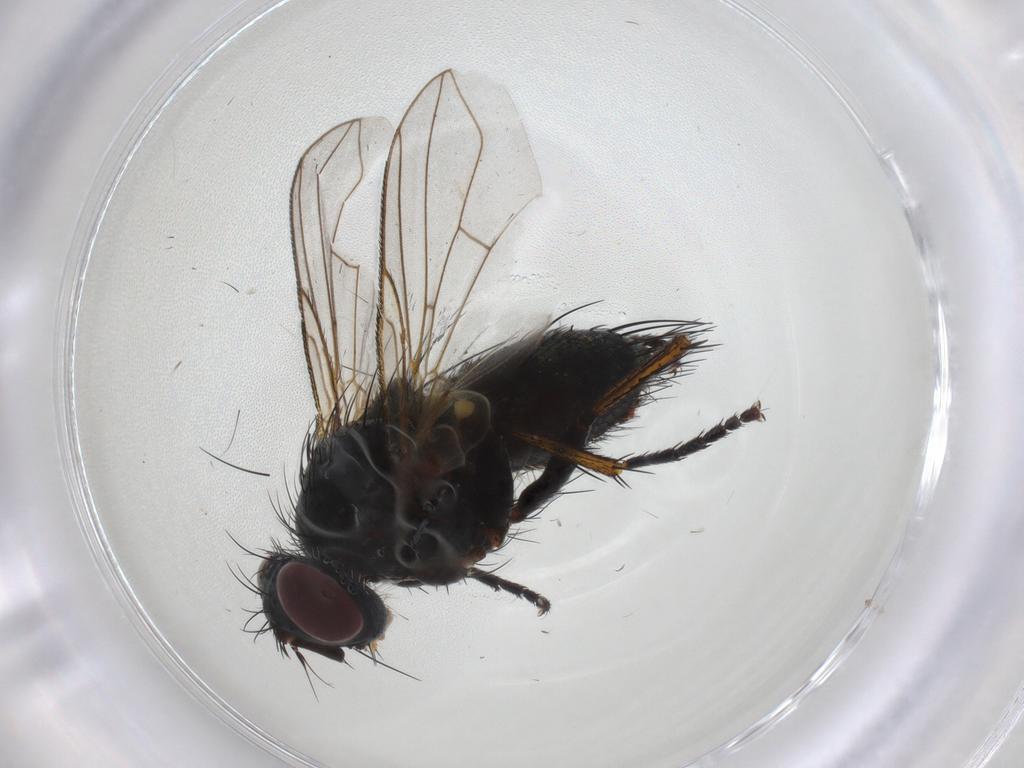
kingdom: Animalia
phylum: Arthropoda
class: Insecta
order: Diptera
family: Tachinidae
